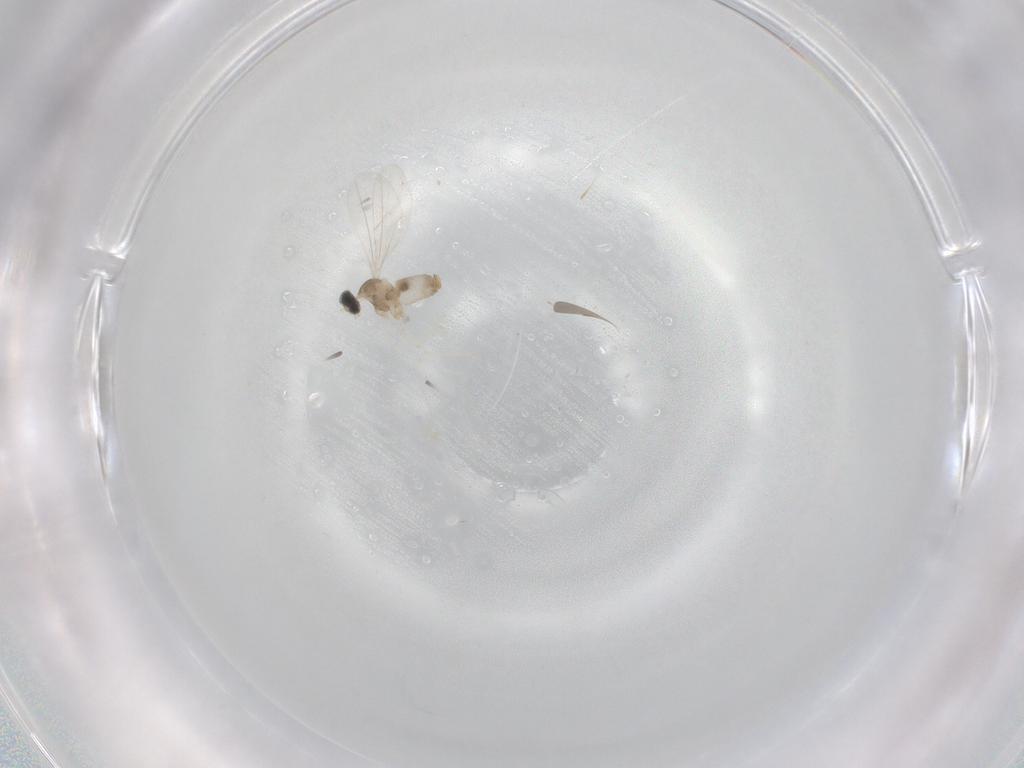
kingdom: Animalia
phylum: Arthropoda
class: Insecta
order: Diptera
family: Cecidomyiidae
